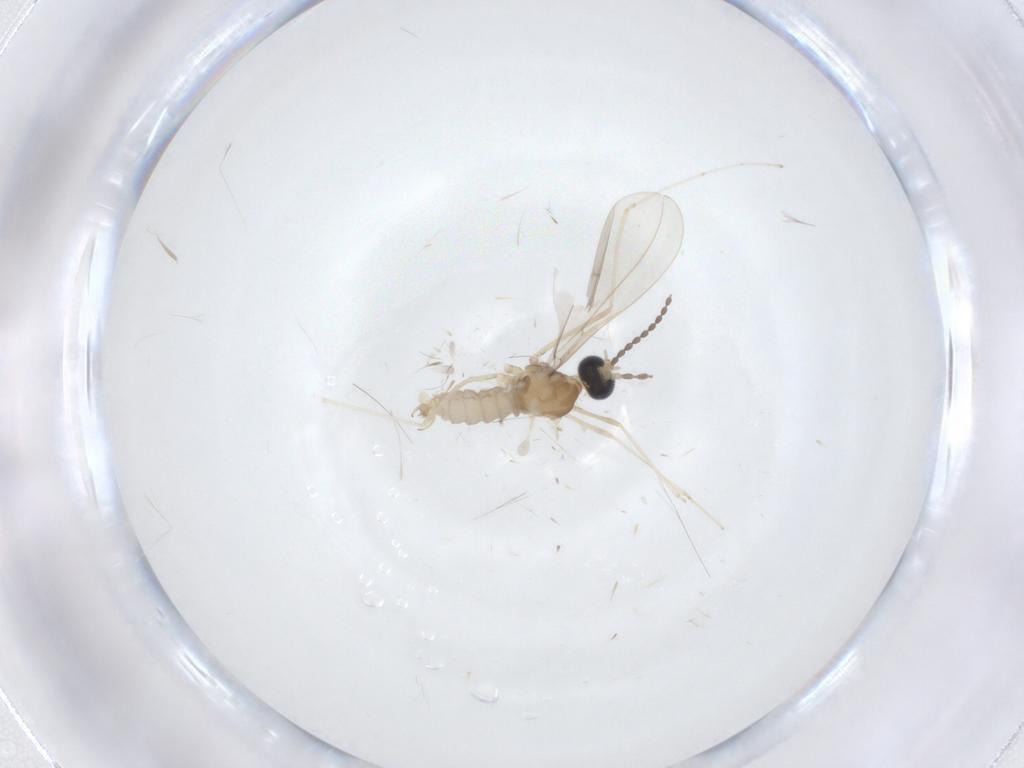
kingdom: Animalia
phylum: Arthropoda
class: Insecta
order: Diptera
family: Cecidomyiidae
